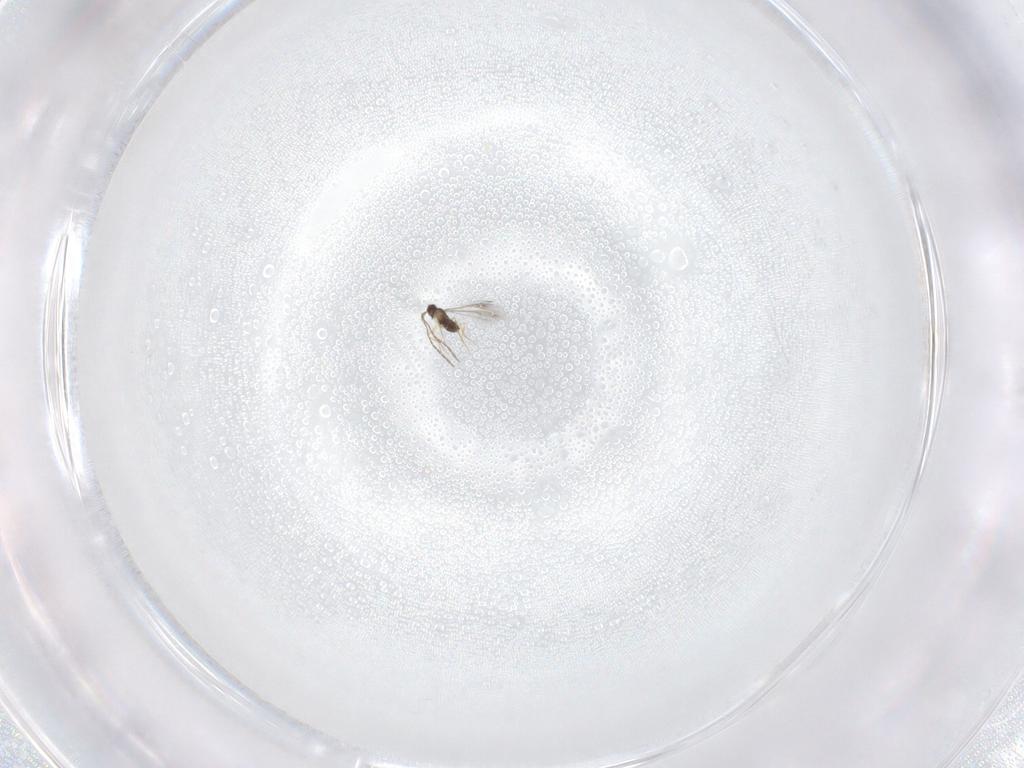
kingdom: Animalia
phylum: Arthropoda
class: Insecta
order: Hymenoptera
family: Ichneumonidae
